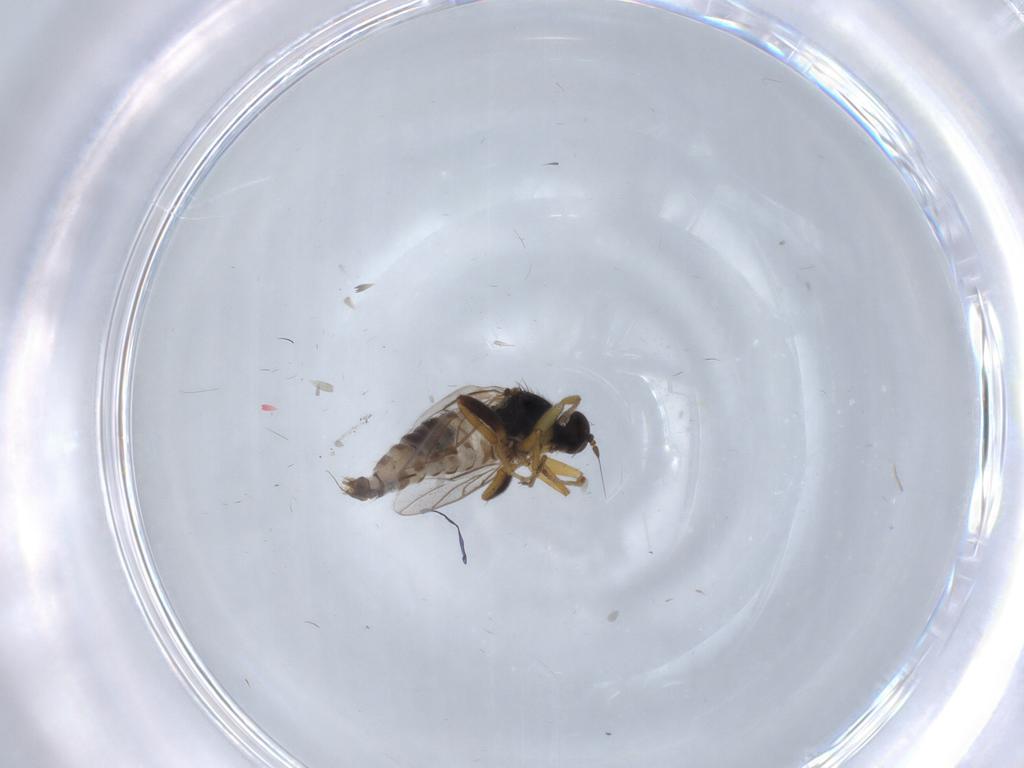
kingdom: Animalia
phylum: Arthropoda
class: Insecta
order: Diptera
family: Hybotidae
